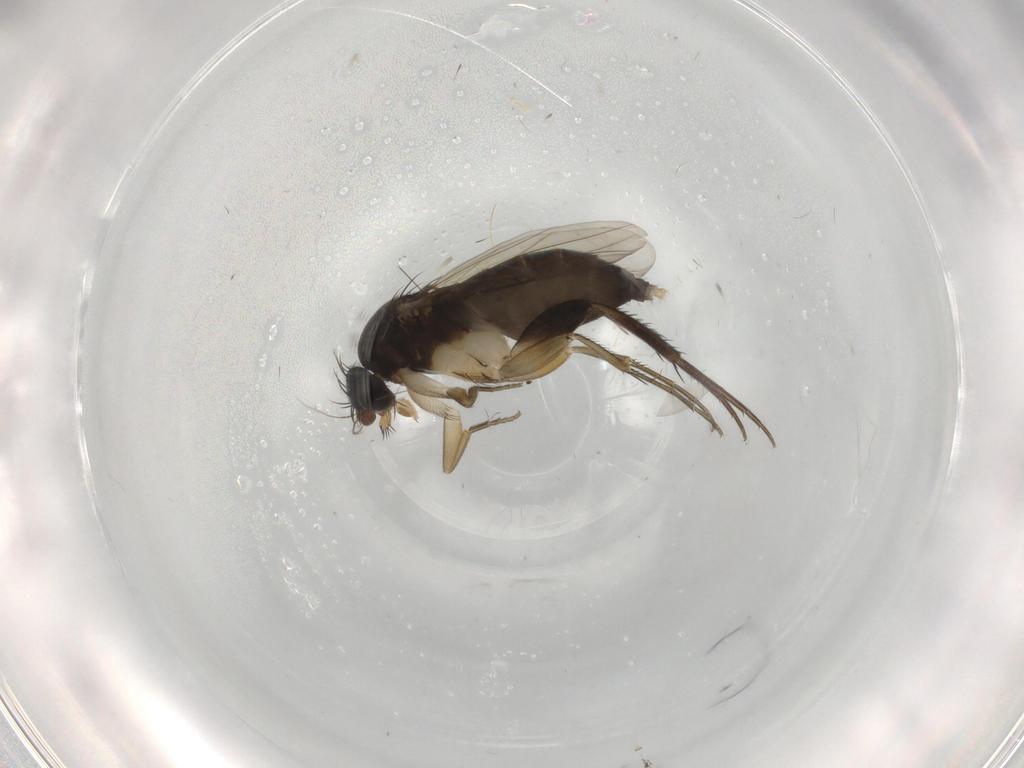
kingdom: Animalia
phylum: Arthropoda
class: Insecta
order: Diptera
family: Phoridae
